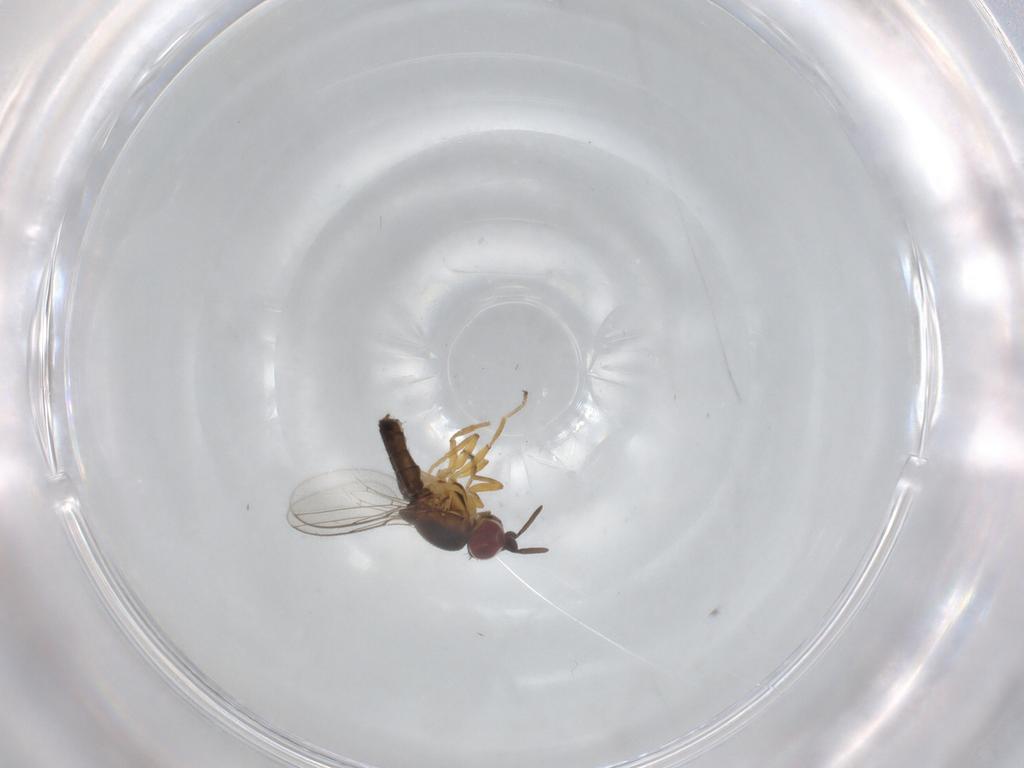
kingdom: Animalia
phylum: Arthropoda
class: Insecta
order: Diptera
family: Chloropidae
